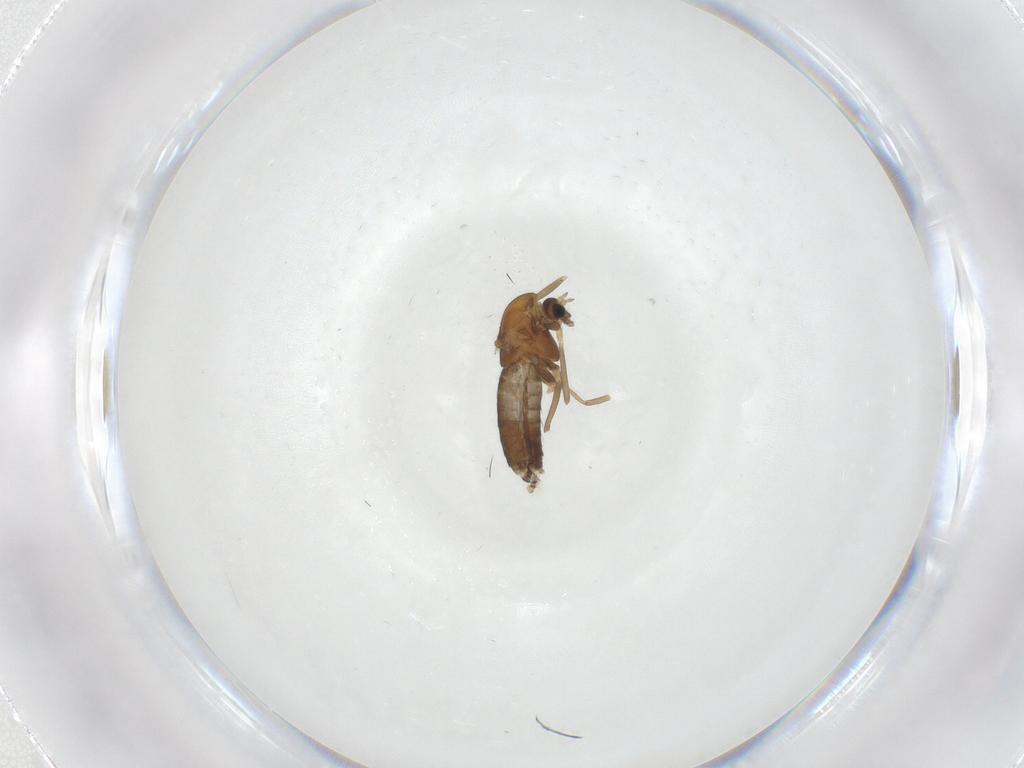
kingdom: Animalia
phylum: Arthropoda
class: Insecta
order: Diptera
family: Chironomidae
